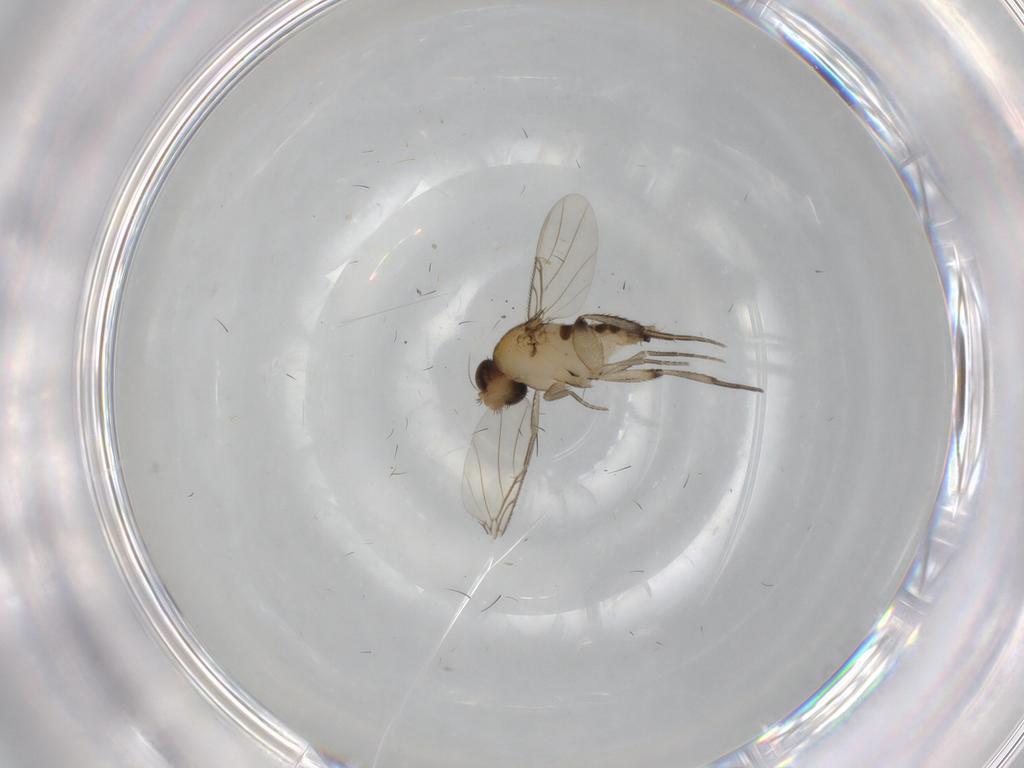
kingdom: Animalia
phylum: Arthropoda
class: Insecta
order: Diptera
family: Phoridae
